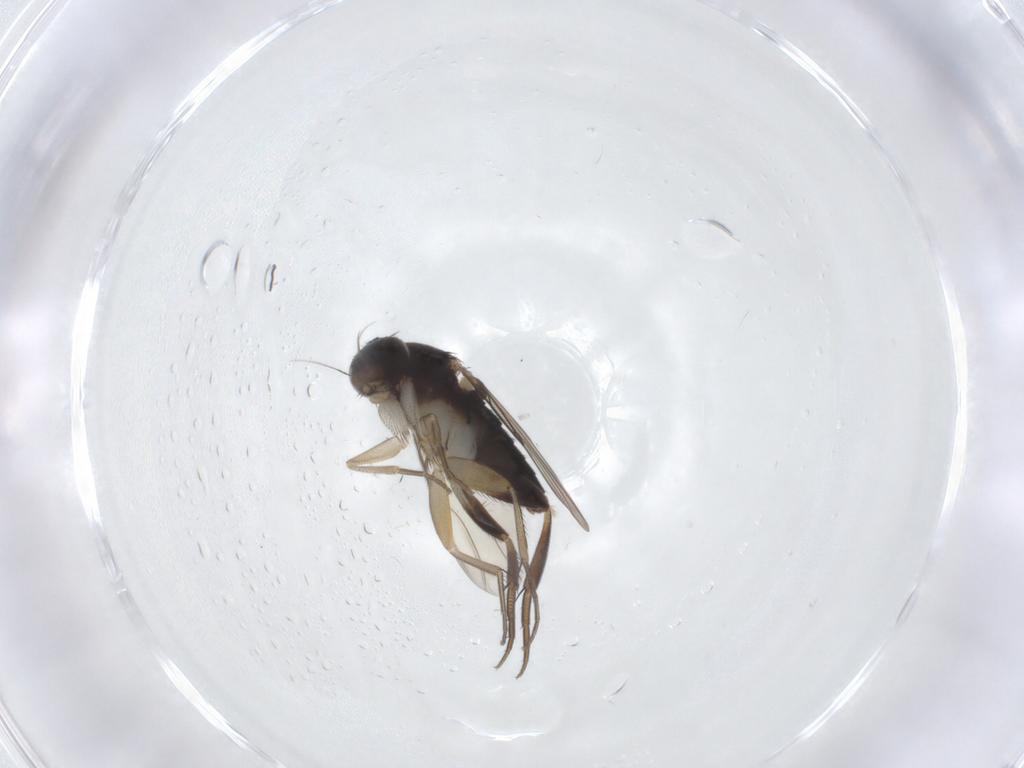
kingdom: Animalia
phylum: Arthropoda
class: Insecta
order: Diptera
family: Phoridae
